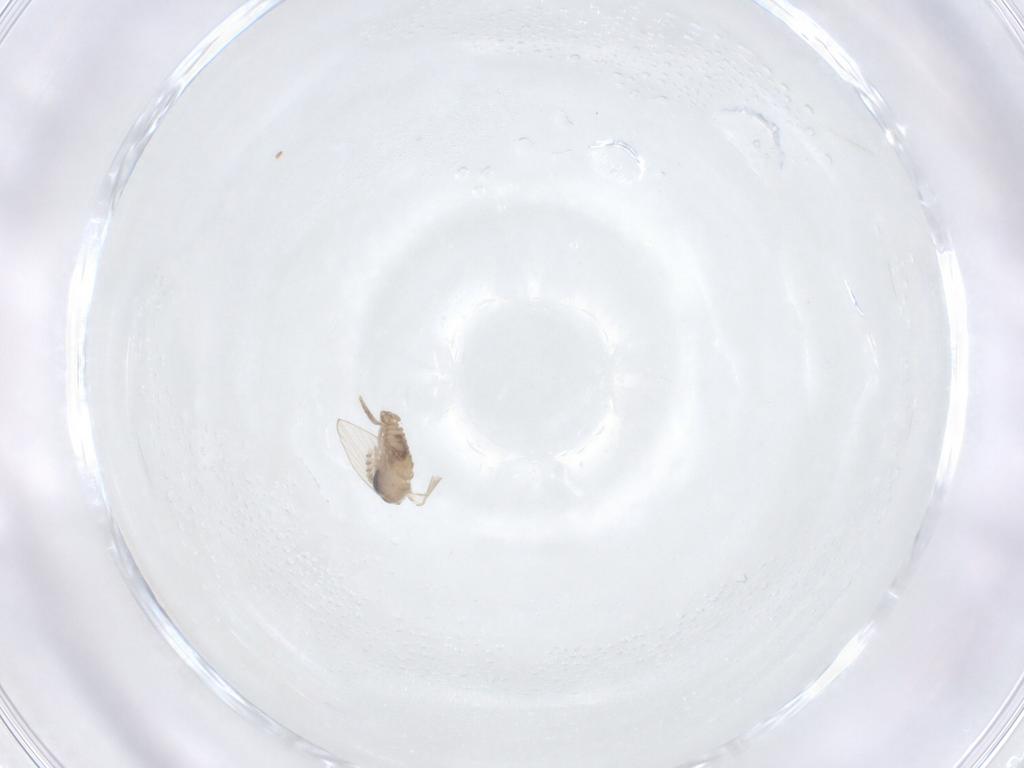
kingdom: Animalia
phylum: Arthropoda
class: Insecta
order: Diptera
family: Psychodidae
